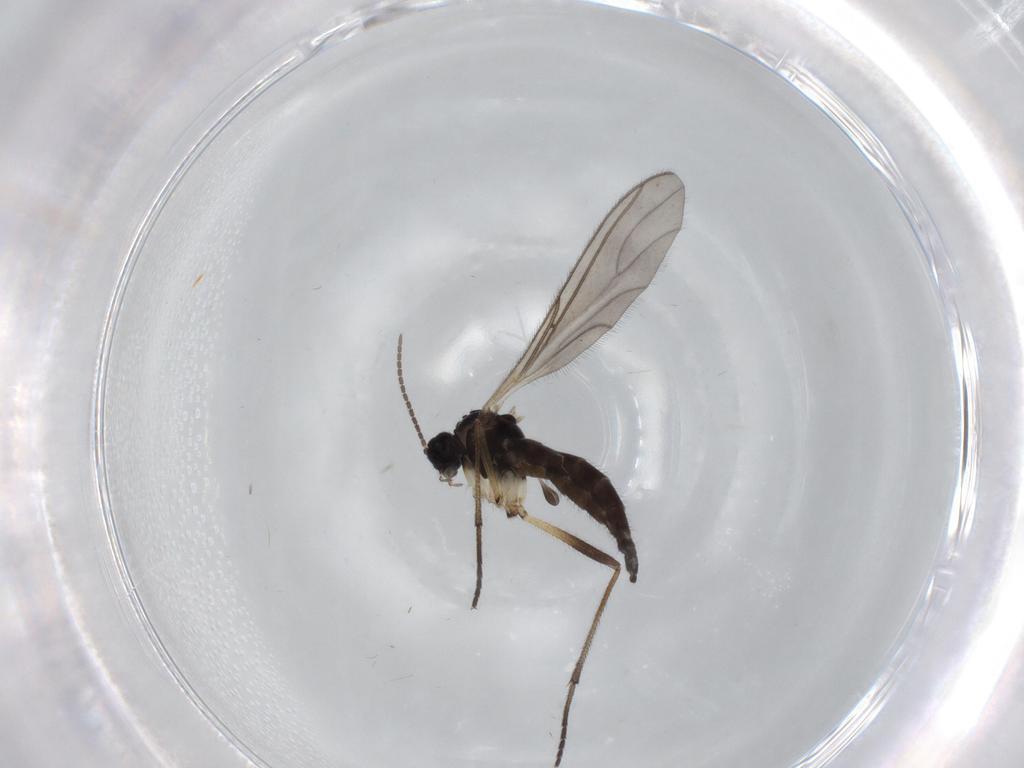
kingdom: Animalia
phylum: Arthropoda
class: Insecta
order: Diptera
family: Sciaridae
